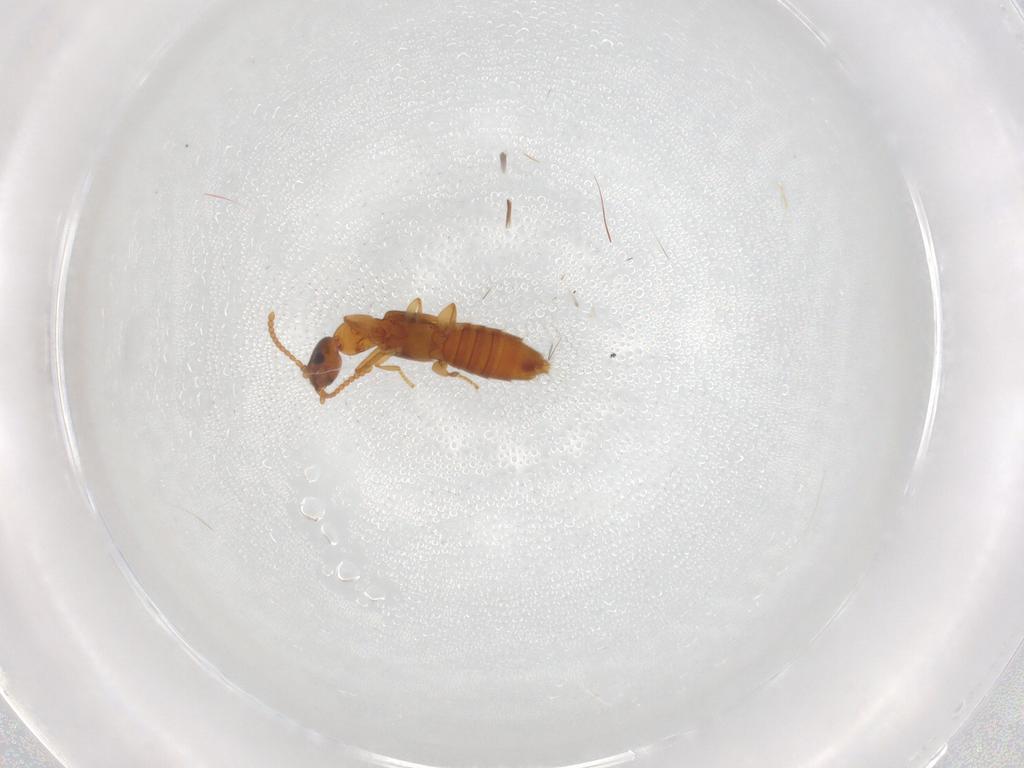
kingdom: Animalia
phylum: Arthropoda
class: Insecta
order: Coleoptera
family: Staphylinidae
